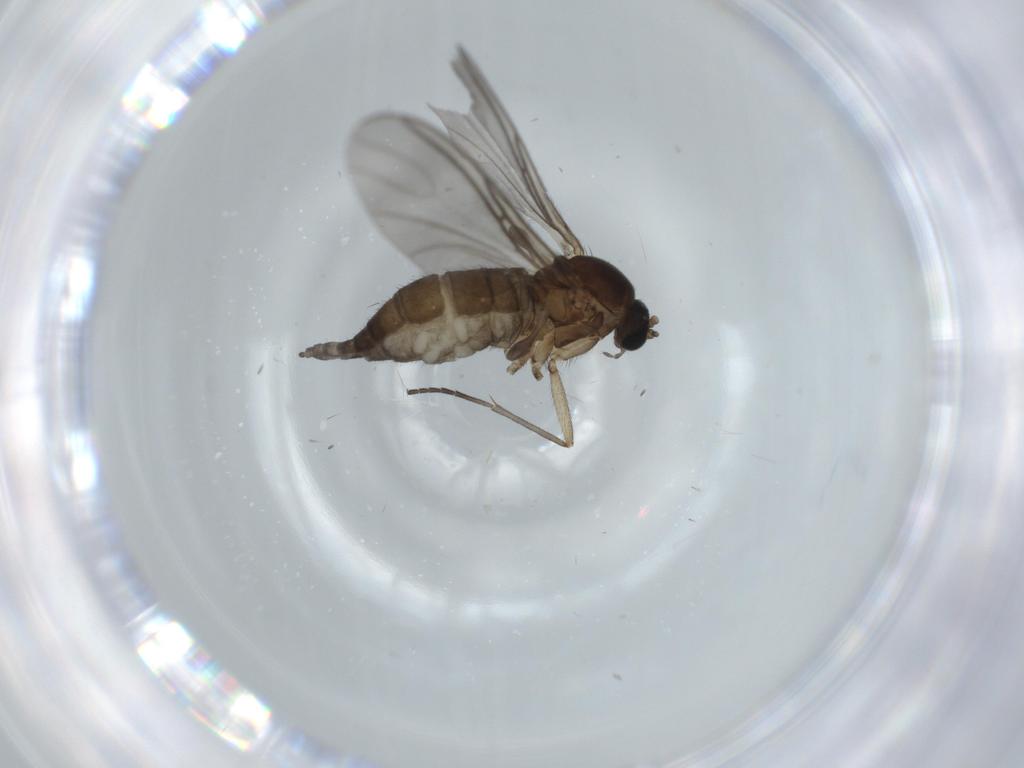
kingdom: Animalia
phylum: Arthropoda
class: Insecta
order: Diptera
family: Sciaridae
